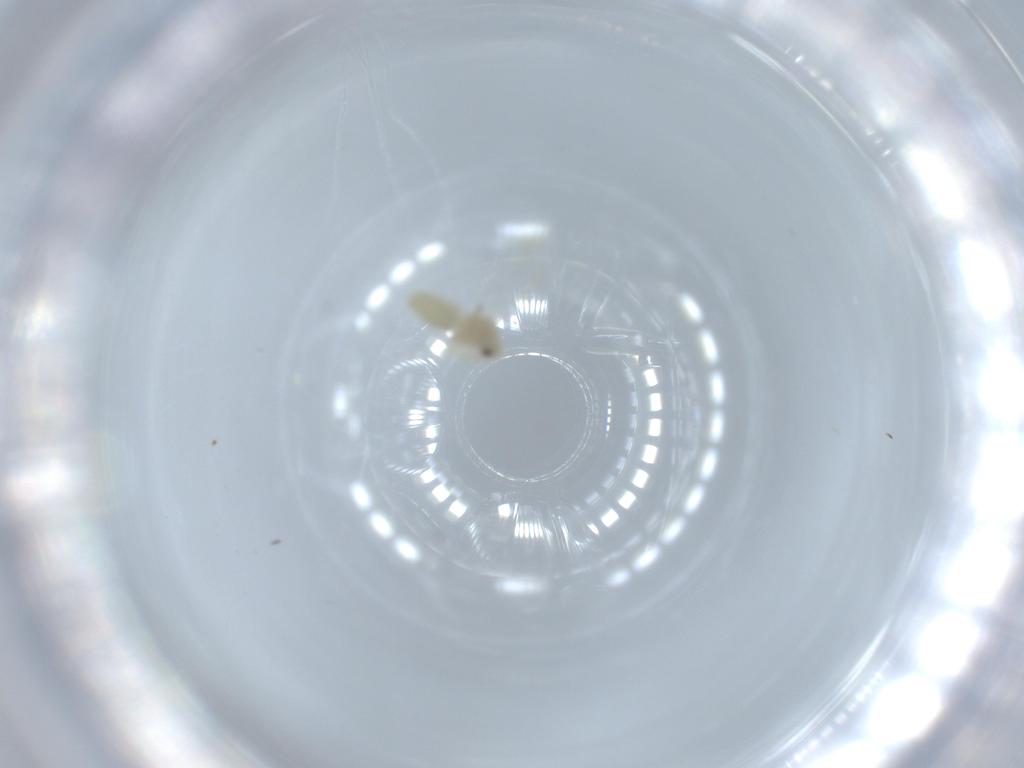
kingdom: Animalia
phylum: Arthropoda
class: Insecta
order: Hemiptera
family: Aleyrodidae
